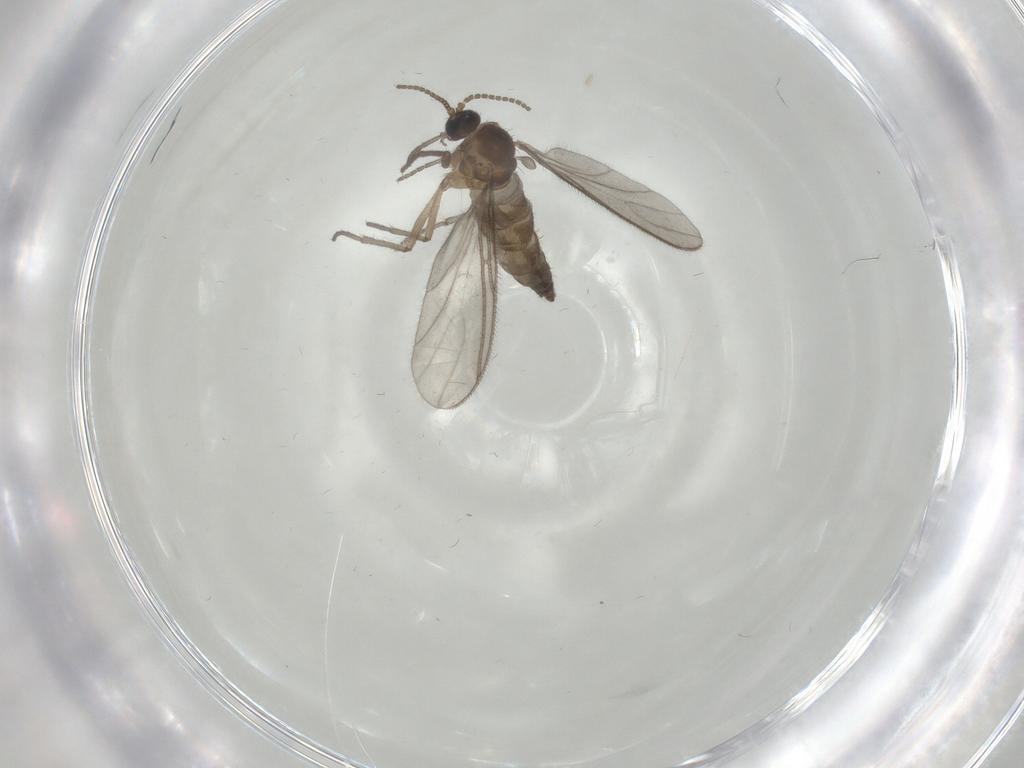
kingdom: Animalia
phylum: Arthropoda
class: Insecta
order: Diptera
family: Sciaridae
